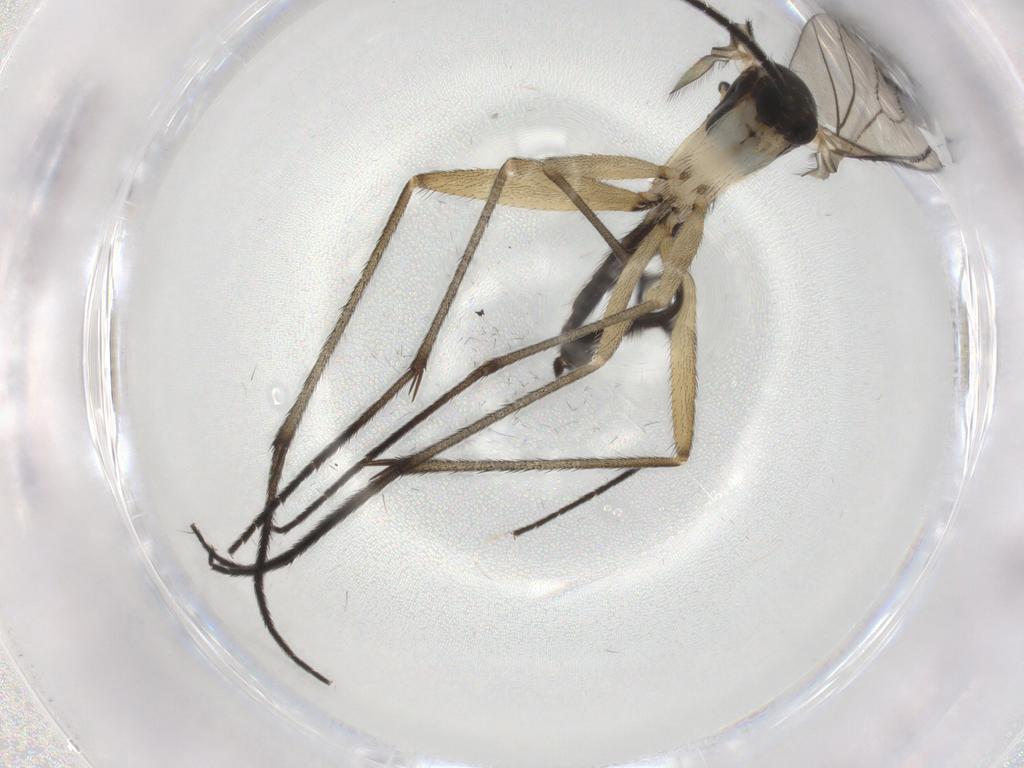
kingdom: Animalia
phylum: Arthropoda
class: Insecta
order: Diptera
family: Sciaridae
